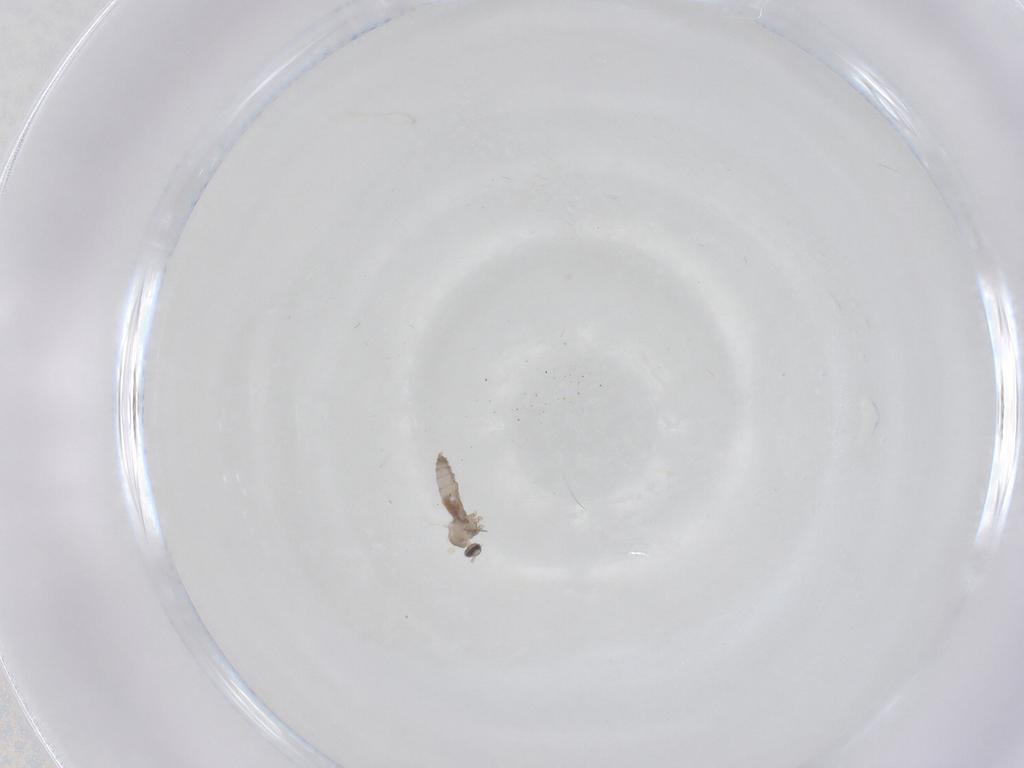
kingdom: Animalia
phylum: Arthropoda
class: Insecta
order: Diptera
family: Cecidomyiidae
